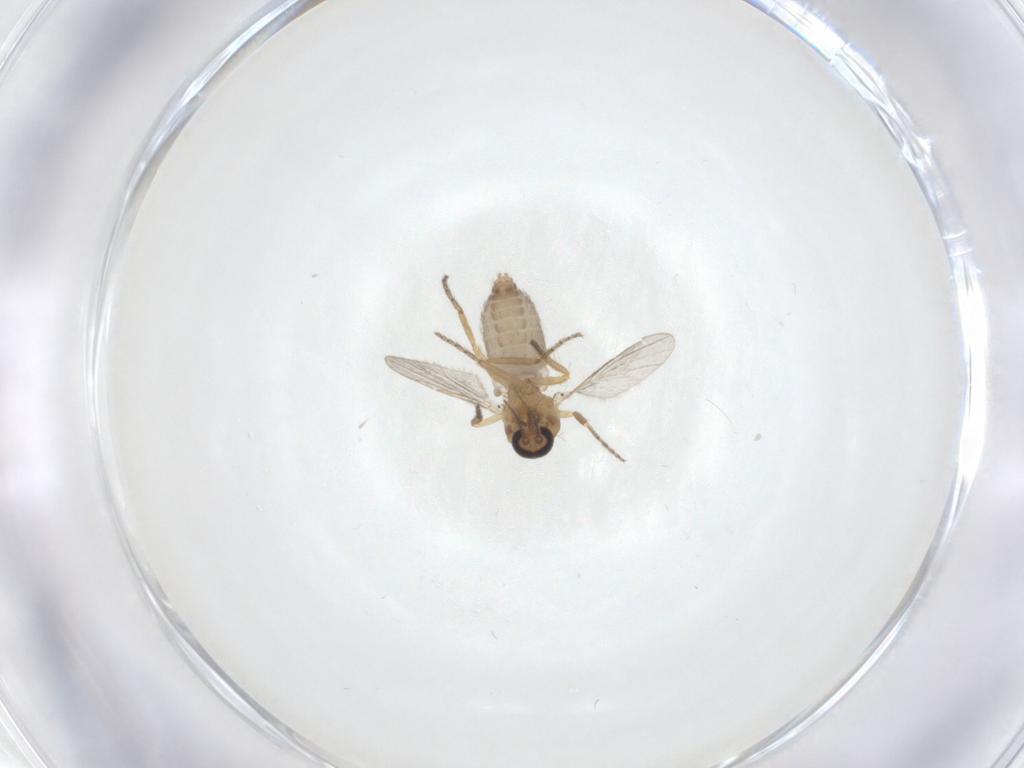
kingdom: Animalia
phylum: Arthropoda
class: Insecta
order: Diptera
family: Ceratopogonidae
